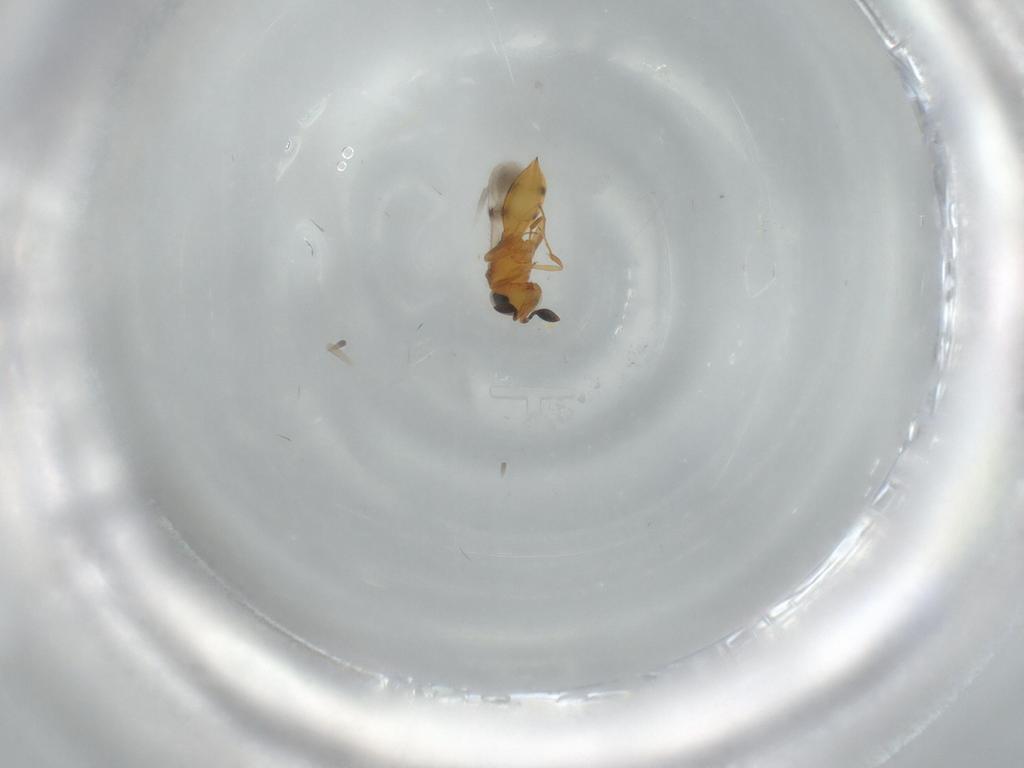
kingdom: Animalia
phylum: Arthropoda
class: Insecta
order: Hymenoptera
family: Scelionidae
